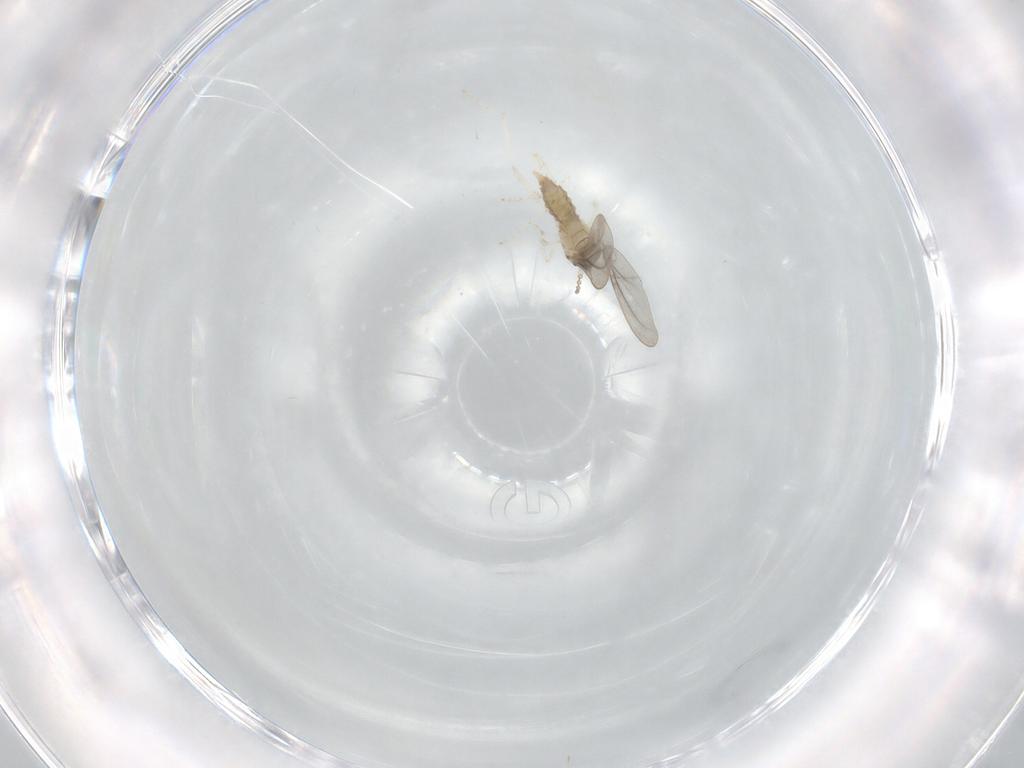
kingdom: Animalia
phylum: Arthropoda
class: Insecta
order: Diptera
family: Cecidomyiidae
